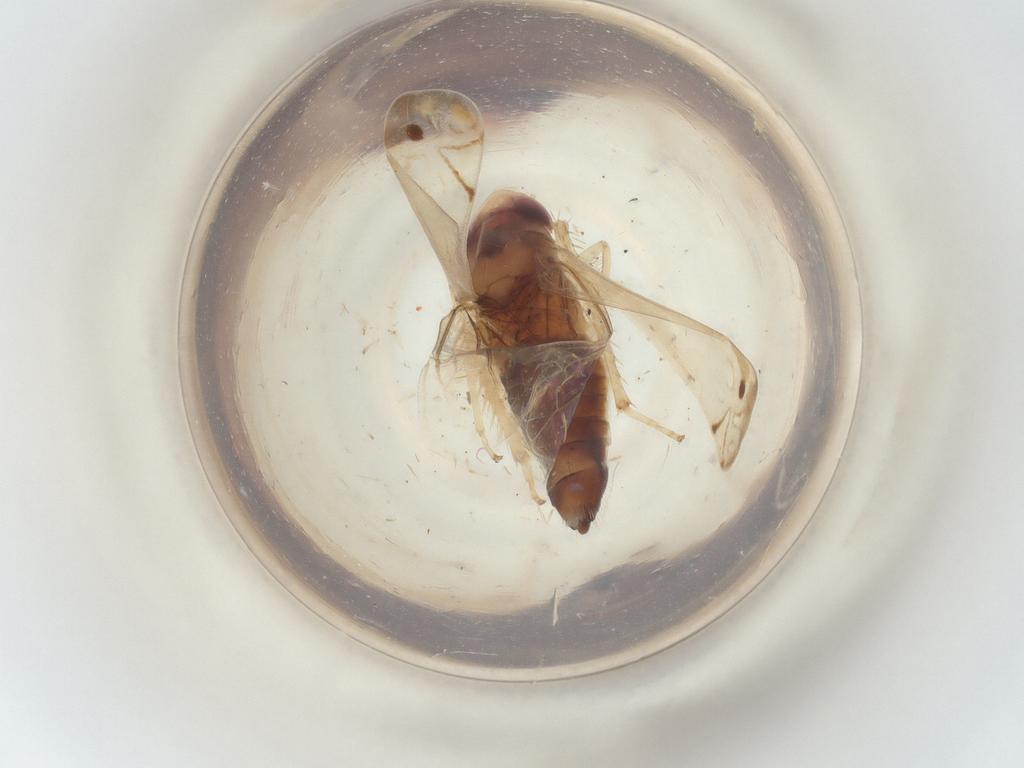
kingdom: Animalia
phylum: Arthropoda
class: Insecta
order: Hemiptera
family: Cicadellidae
